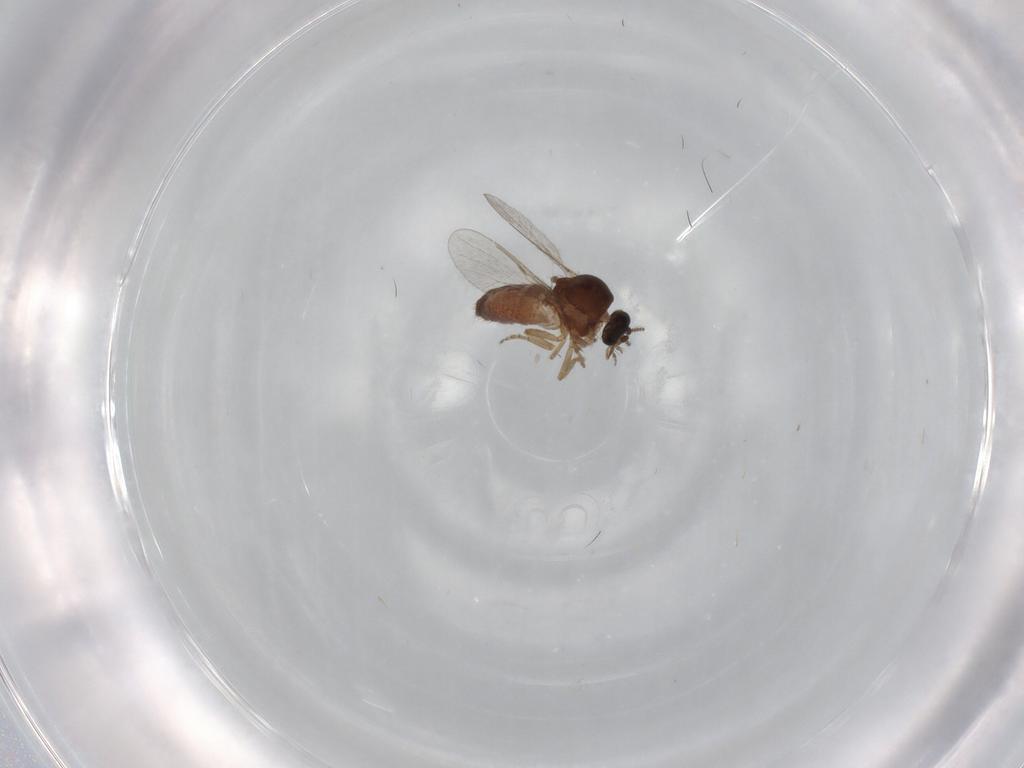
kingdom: Animalia
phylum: Arthropoda
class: Insecta
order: Diptera
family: Ceratopogonidae
